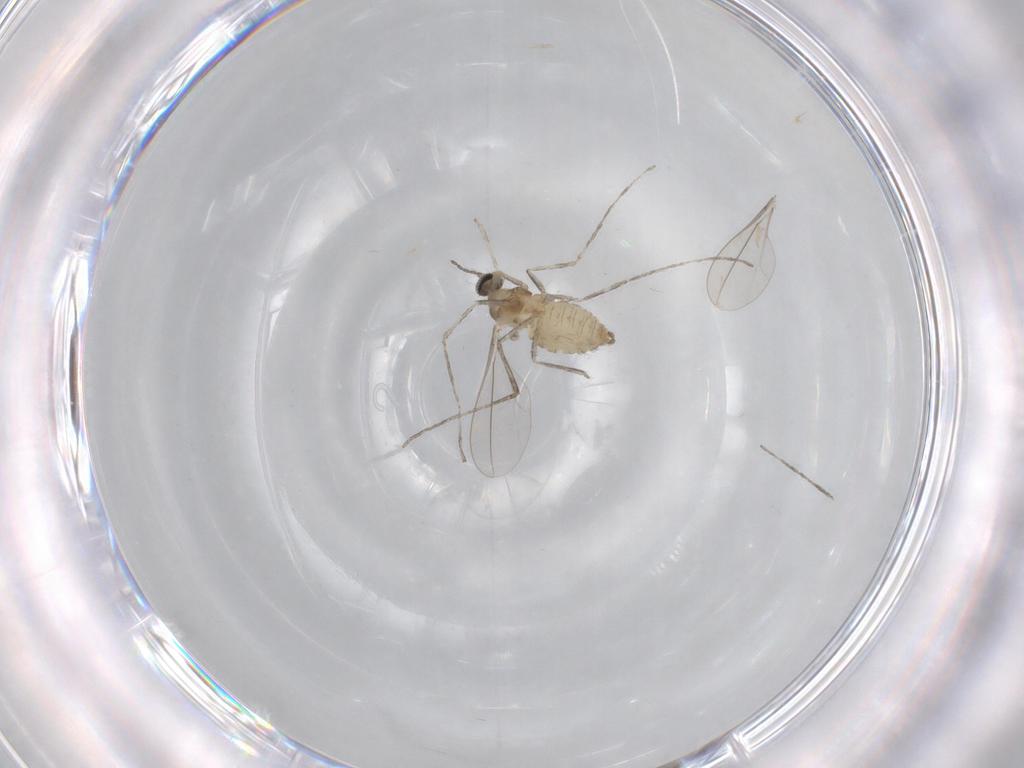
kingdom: Animalia
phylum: Arthropoda
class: Insecta
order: Diptera
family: Cecidomyiidae
